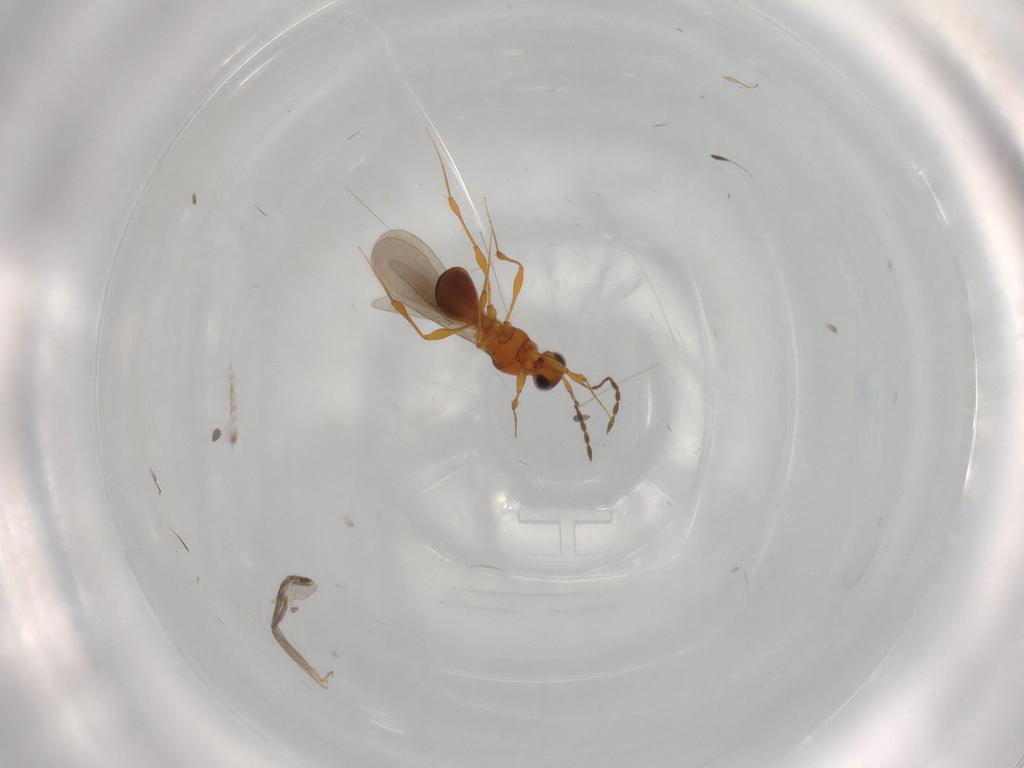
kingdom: Animalia
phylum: Arthropoda
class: Insecta
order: Hymenoptera
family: Platygastridae
